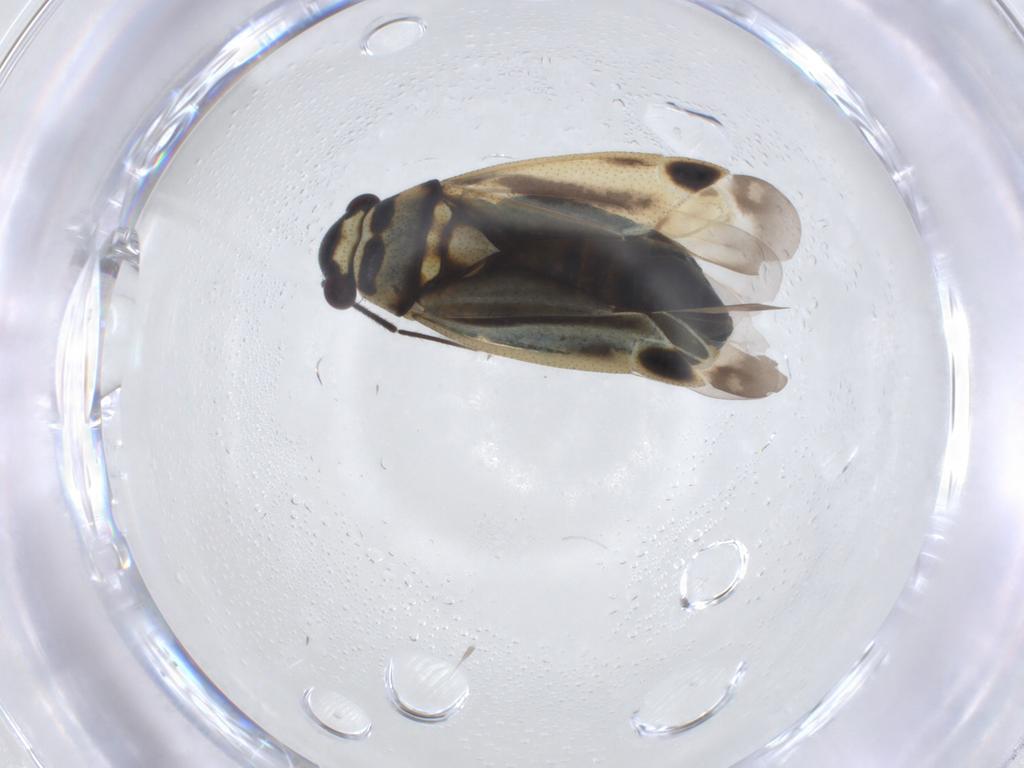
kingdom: Animalia
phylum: Arthropoda
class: Insecta
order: Hemiptera
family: Miridae
